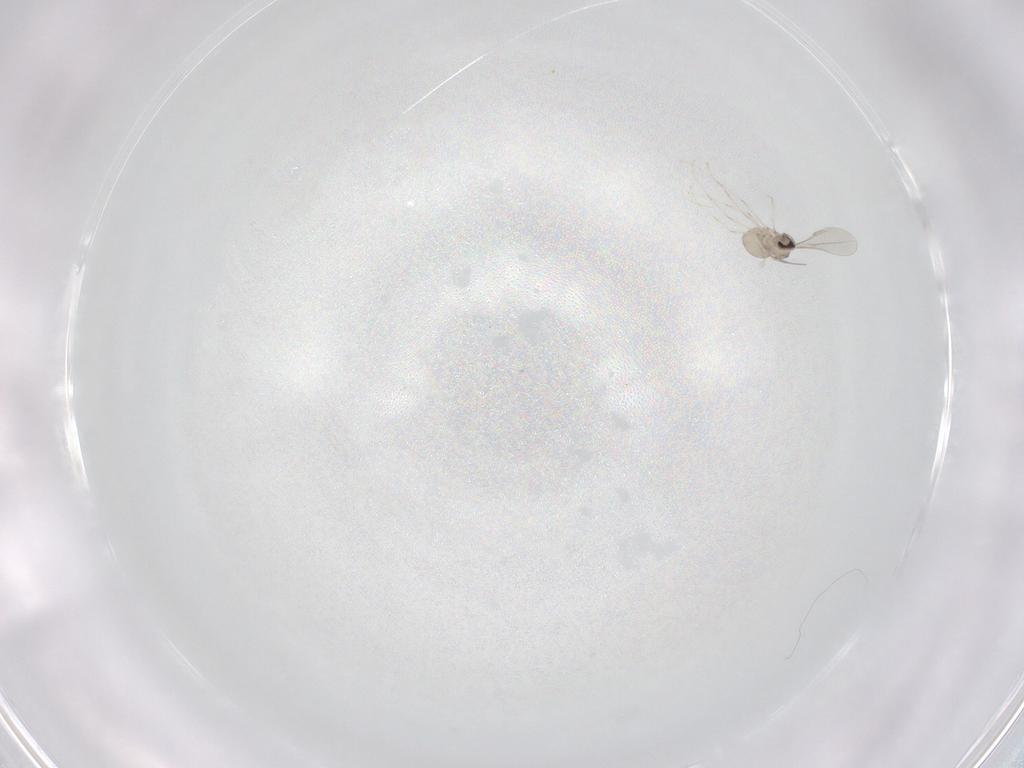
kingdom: Animalia
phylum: Arthropoda
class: Insecta
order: Diptera
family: Cecidomyiidae
